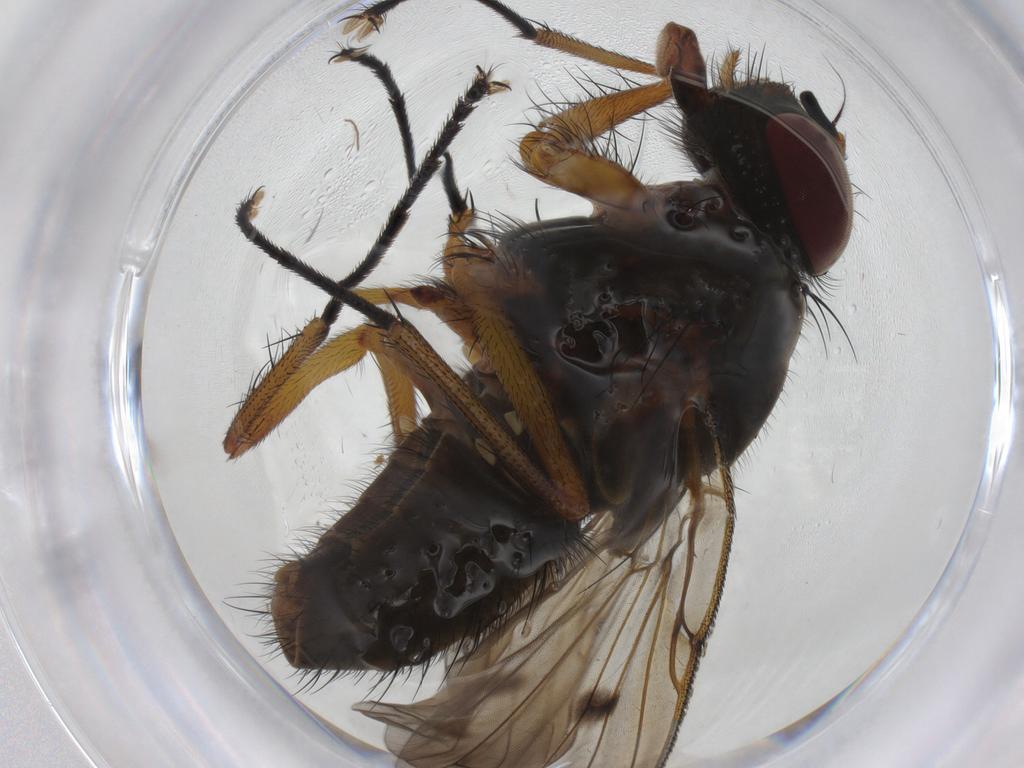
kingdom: Animalia
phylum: Arthropoda
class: Insecta
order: Diptera
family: Muscidae
